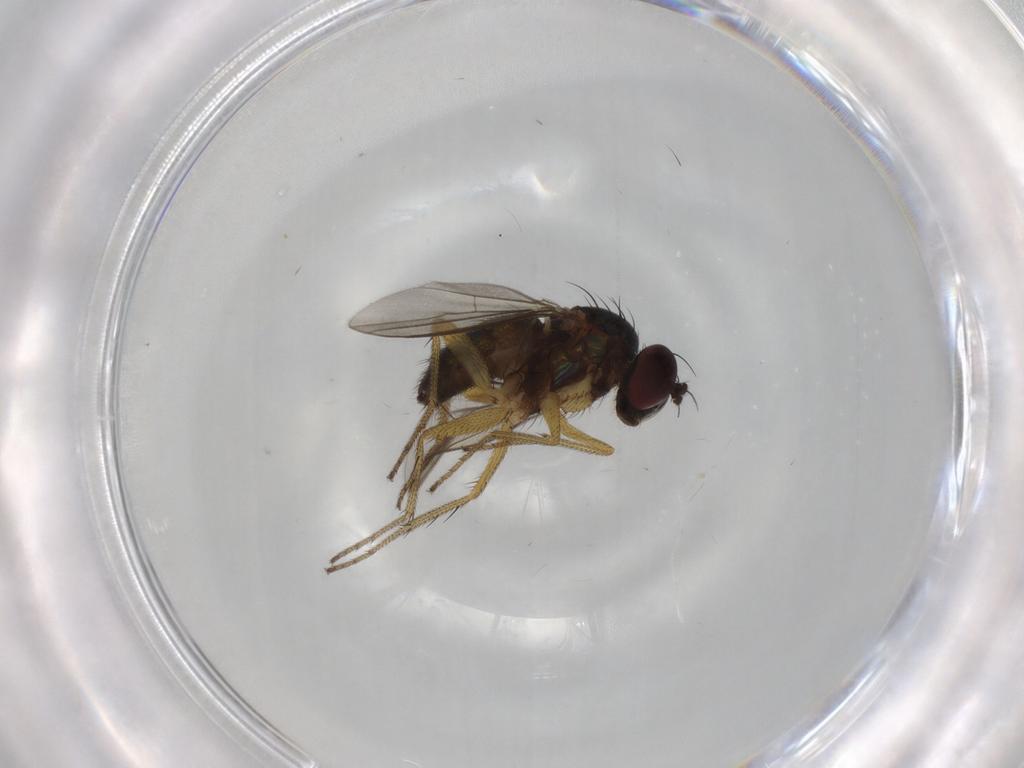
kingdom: Animalia
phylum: Arthropoda
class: Insecta
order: Diptera
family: Dolichopodidae
